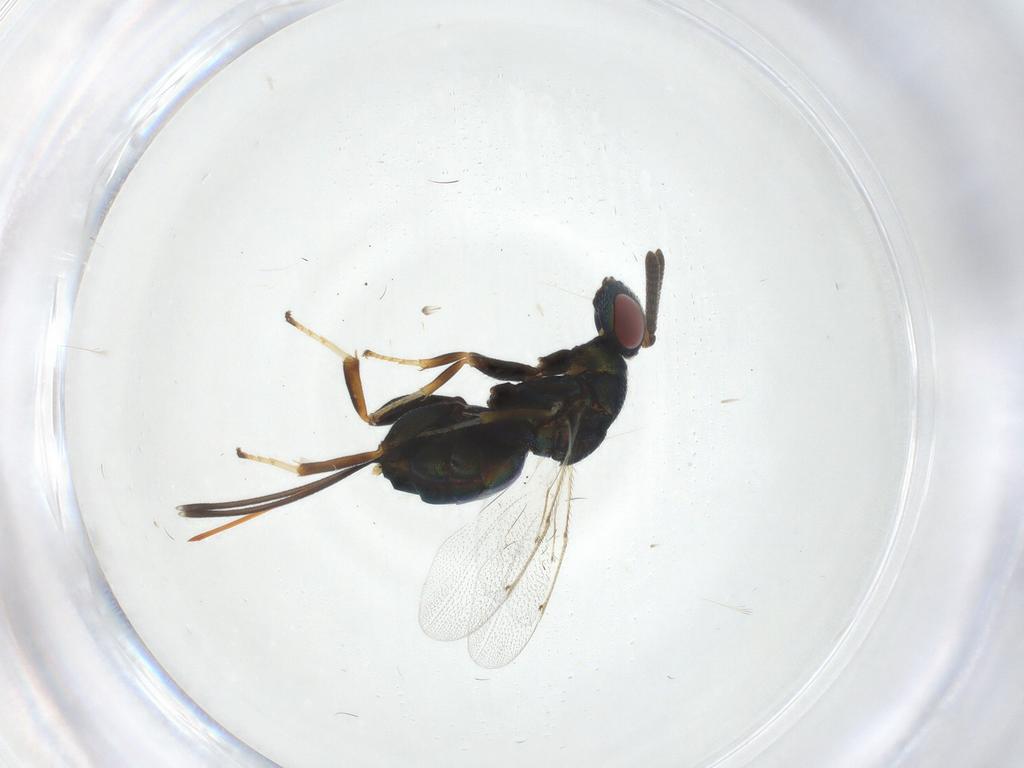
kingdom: Animalia
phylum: Arthropoda
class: Insecta
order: Hymenoptera
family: Torymidae
